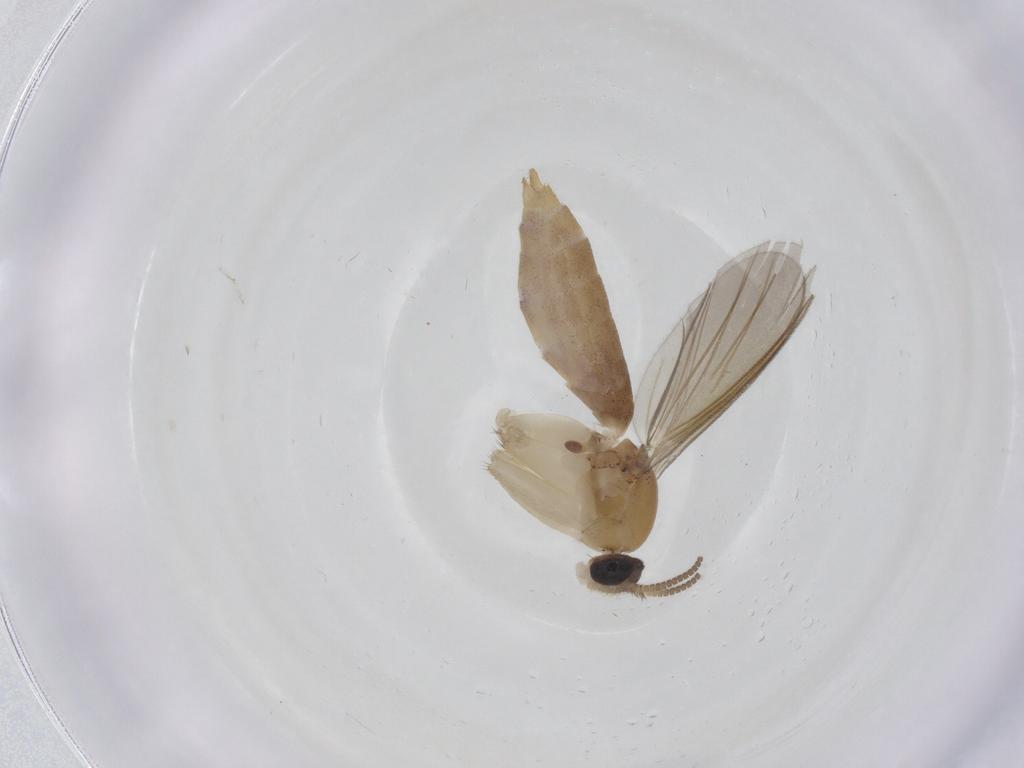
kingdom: Animalia
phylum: Arthropoda
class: Insecta
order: Diptera
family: Mycetophilidae
